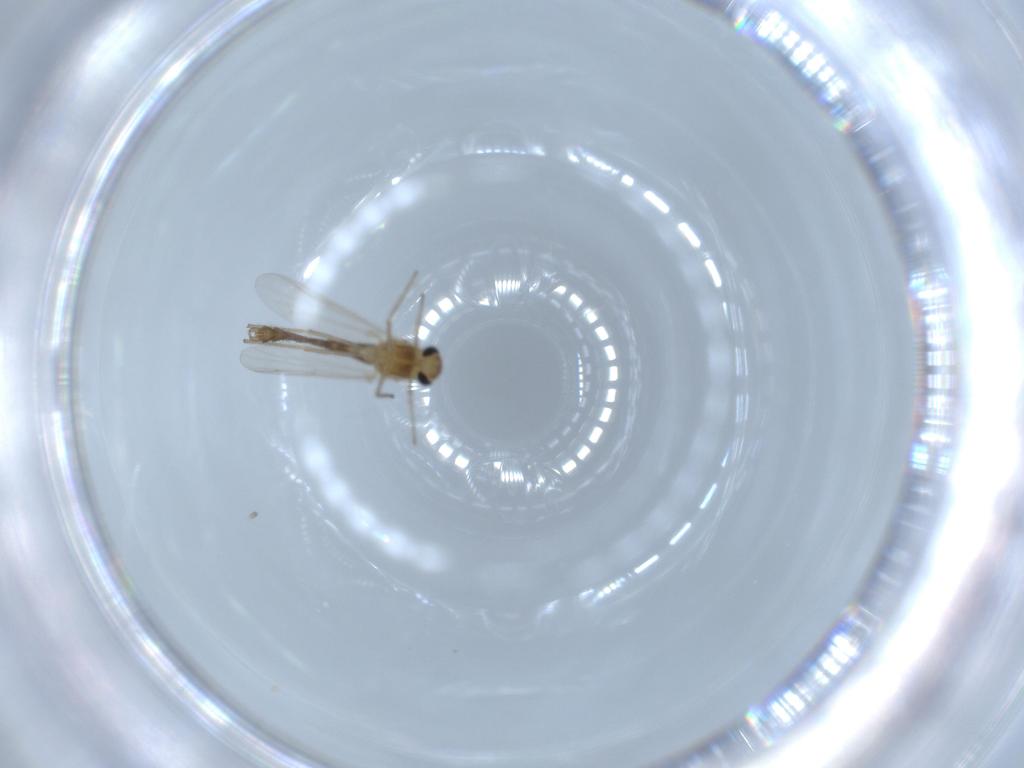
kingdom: Animalia
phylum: Arthropoda
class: Insecta
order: Diptera
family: Chironomidae
